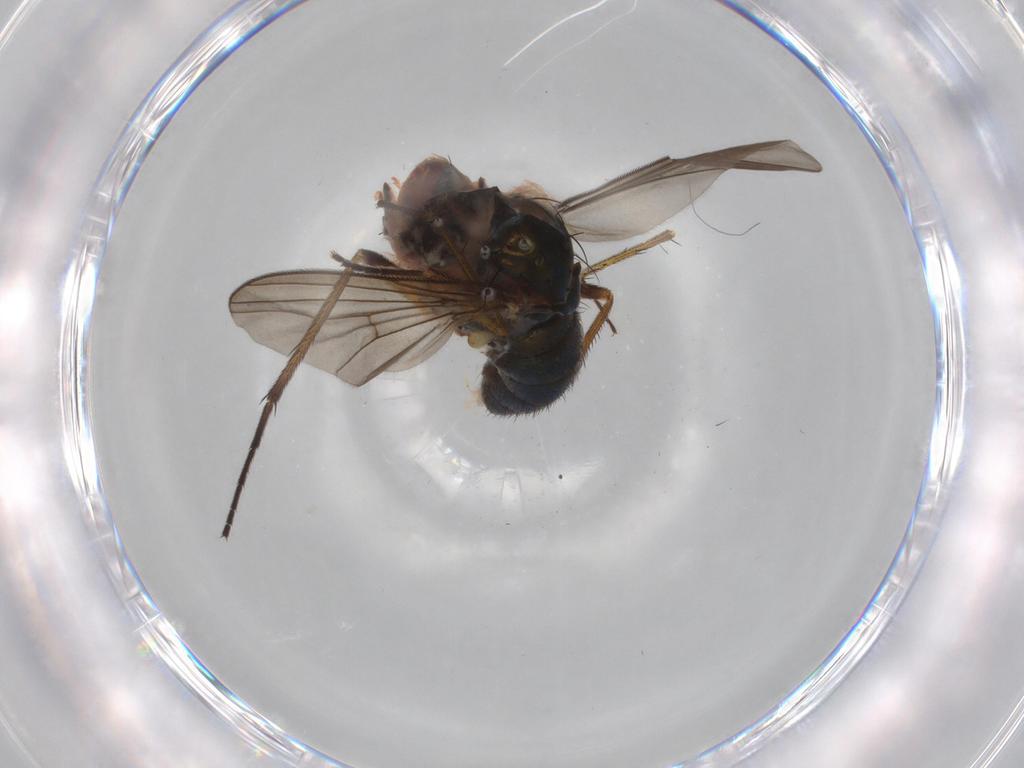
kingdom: Animalia
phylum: Arthropoda
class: Insecta
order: Diptera
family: Dolichopodidae
